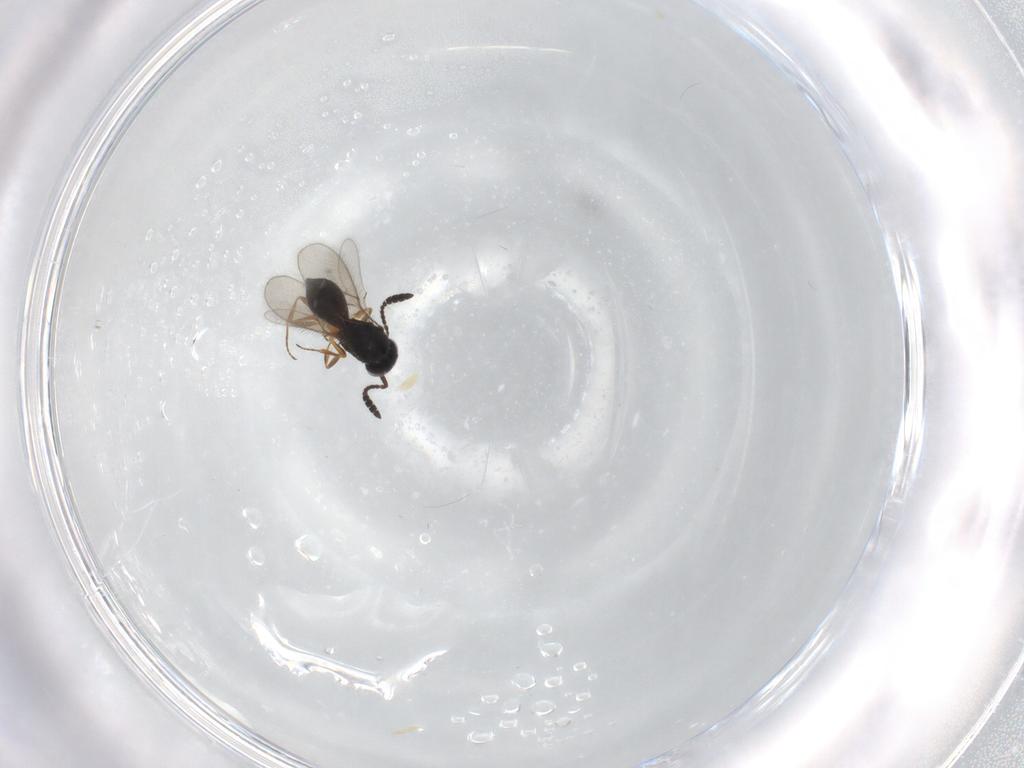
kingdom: Animalia
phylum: Arthropoda
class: Insecta
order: Hymenoptera
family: Scelionidae
